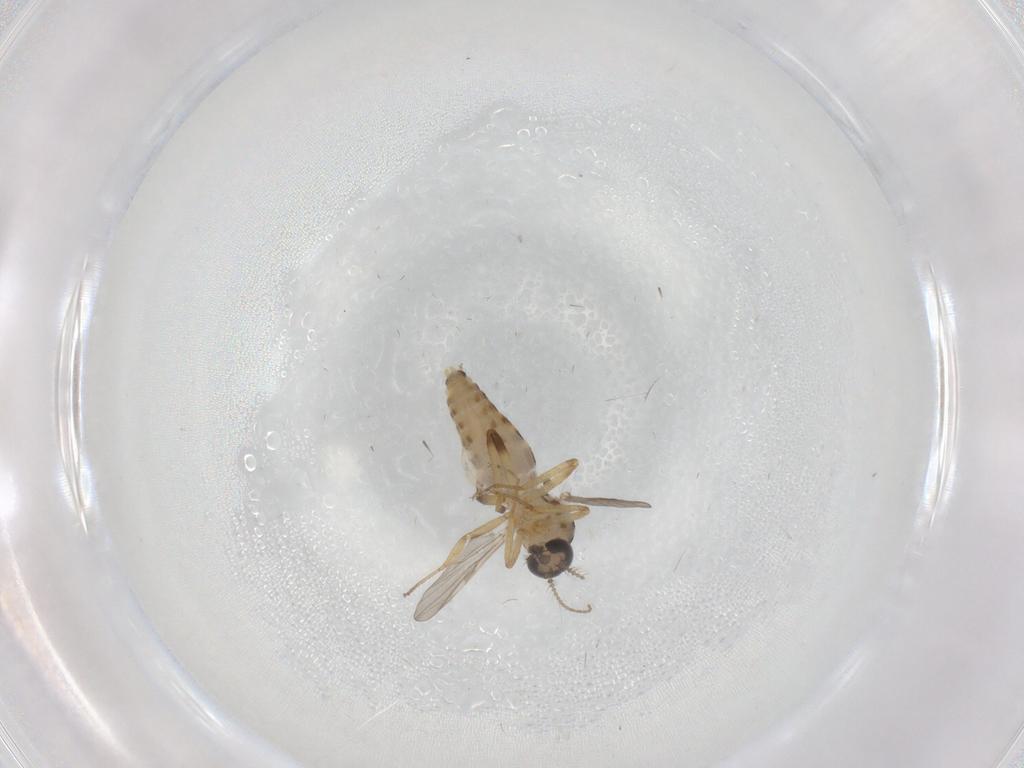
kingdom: Animalia
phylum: Arthropoda
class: Insecta
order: Diptera
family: Ceratopogonidae
